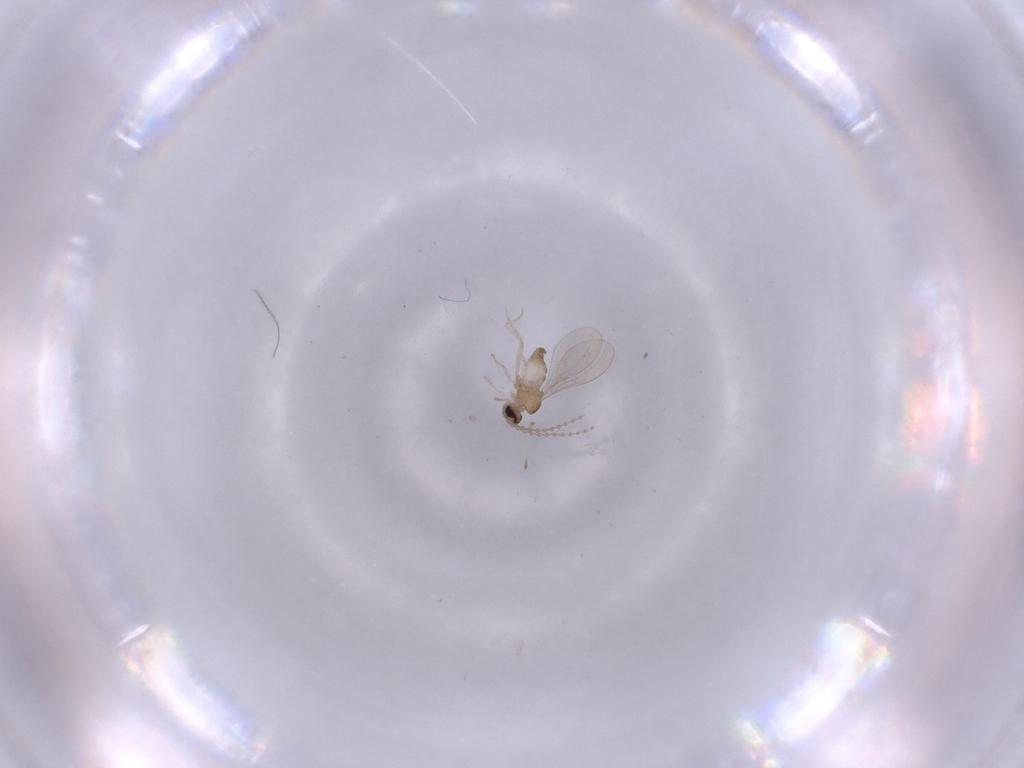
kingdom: Animalia
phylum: Arthropoda
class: Insecta
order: Diptera
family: Cecidomyiidae
